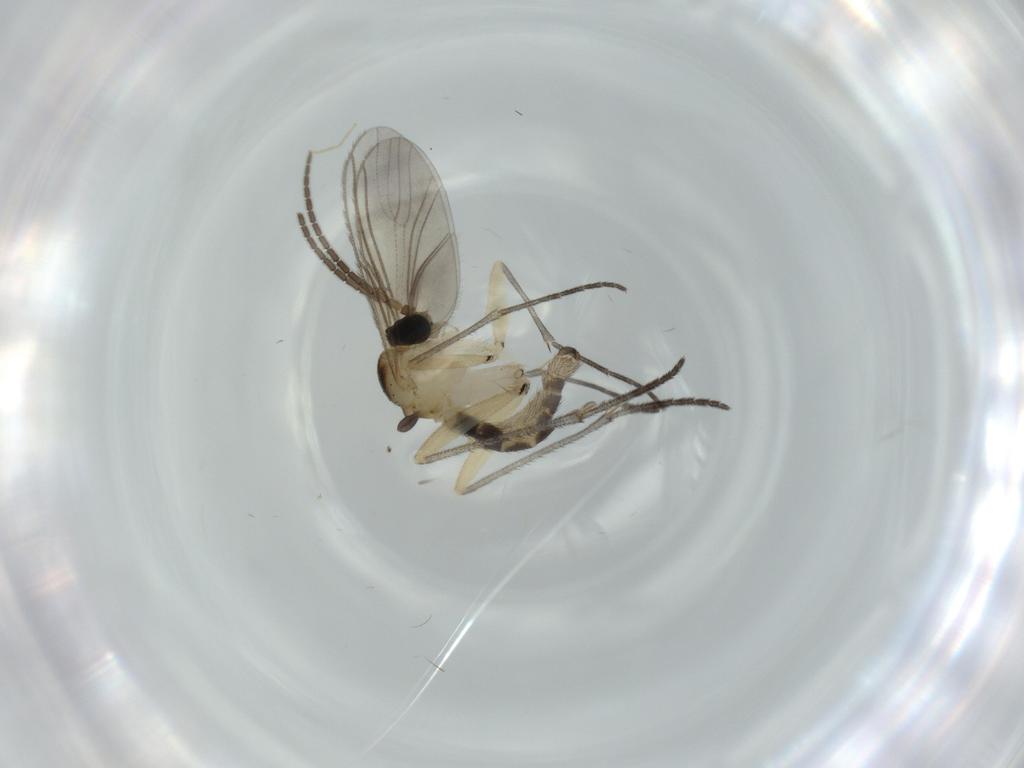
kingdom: Animalia
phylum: Arthropoda
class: Insecta
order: Diptera
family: Sciaridae
